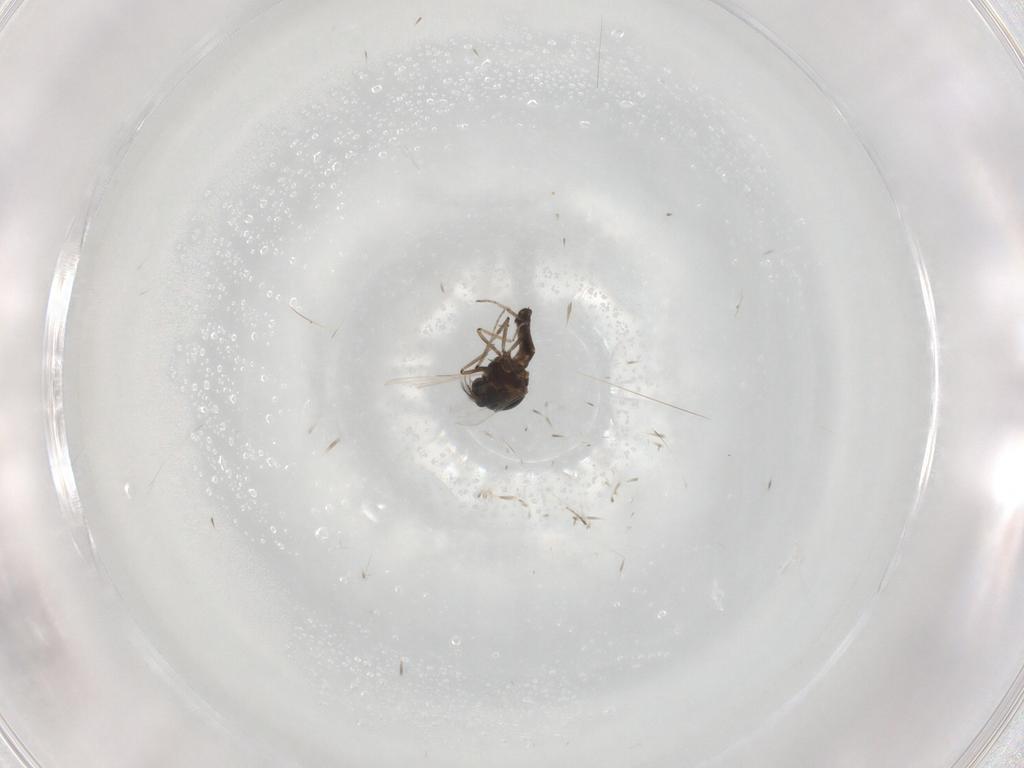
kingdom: Animalia
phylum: Arthropoda
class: Insecta
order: Diptera
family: Ceratopogonidae
